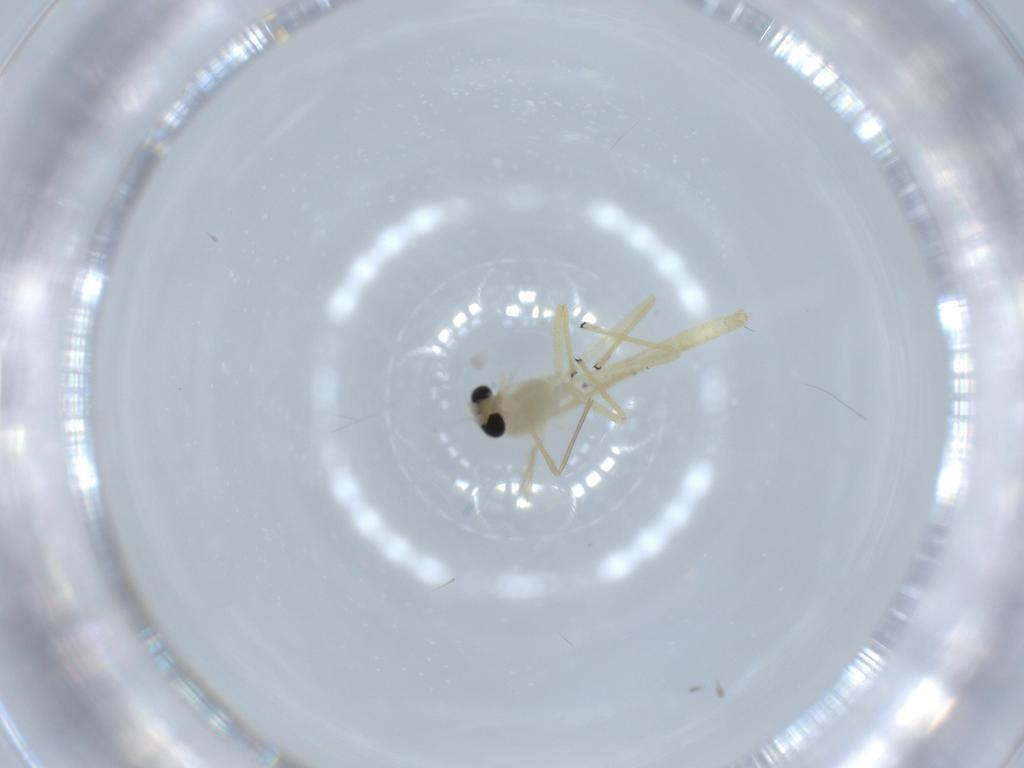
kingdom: Animalia
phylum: Arthropoda
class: Insecta
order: Diptera
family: Chironomidae
